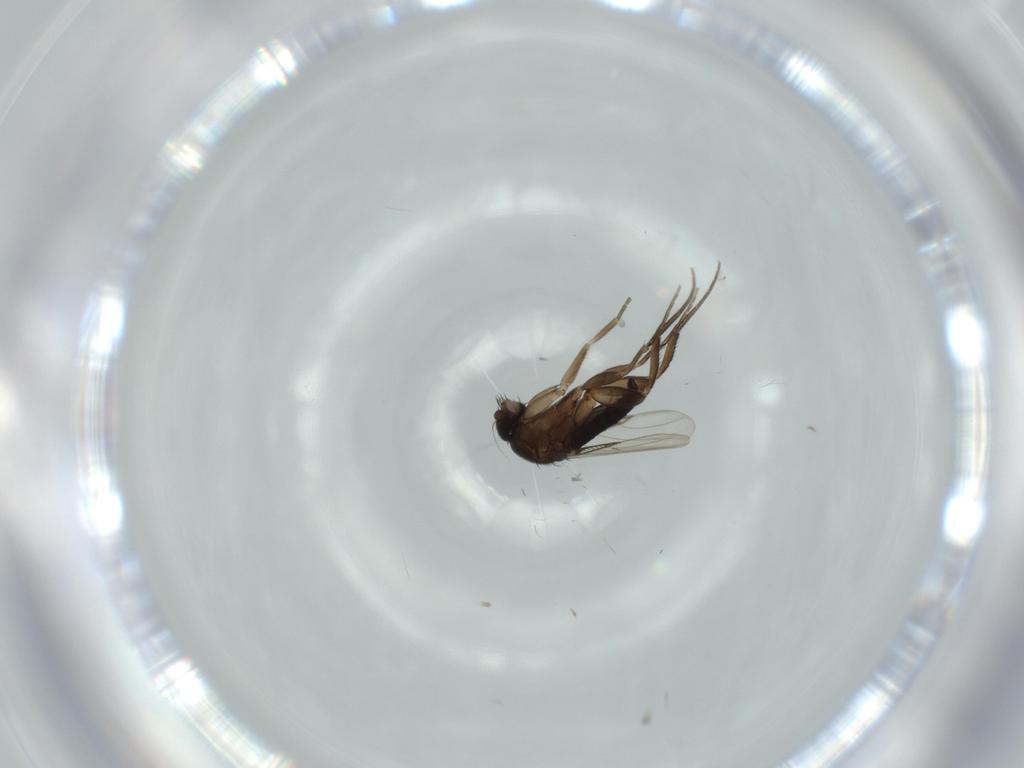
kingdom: Animalia
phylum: Arthropoda
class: Insecta
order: Diptera
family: Phoridae
